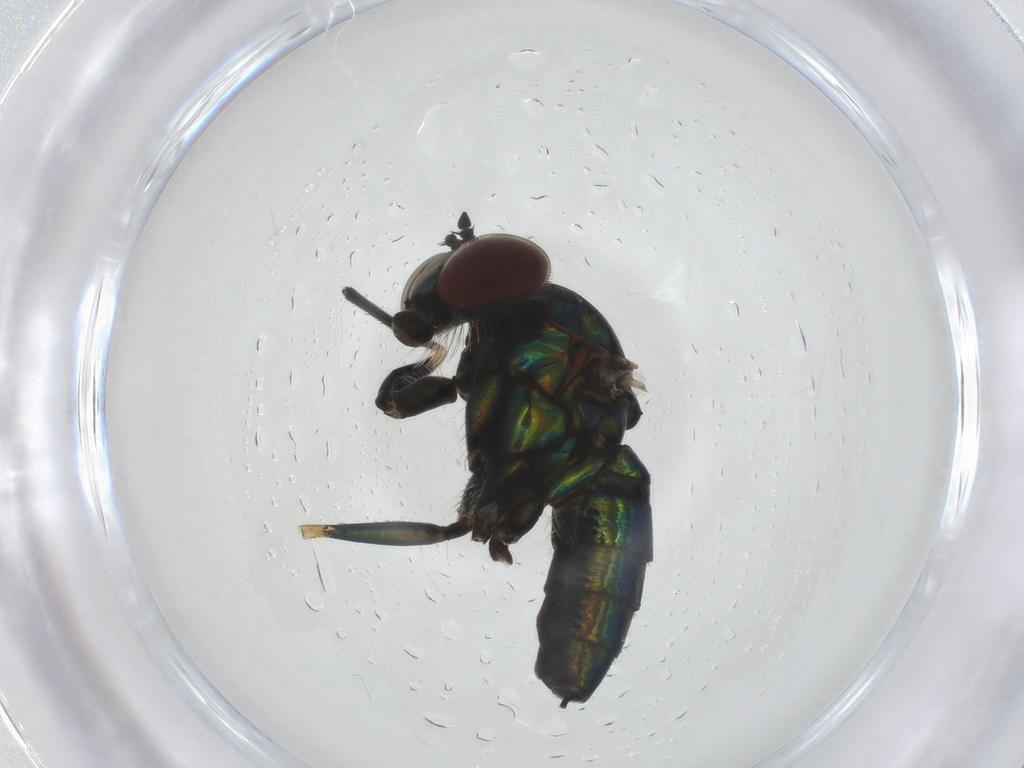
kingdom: Animalia
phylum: Arthropoda
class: Insecta
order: Diptera
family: Dolichopodidae
